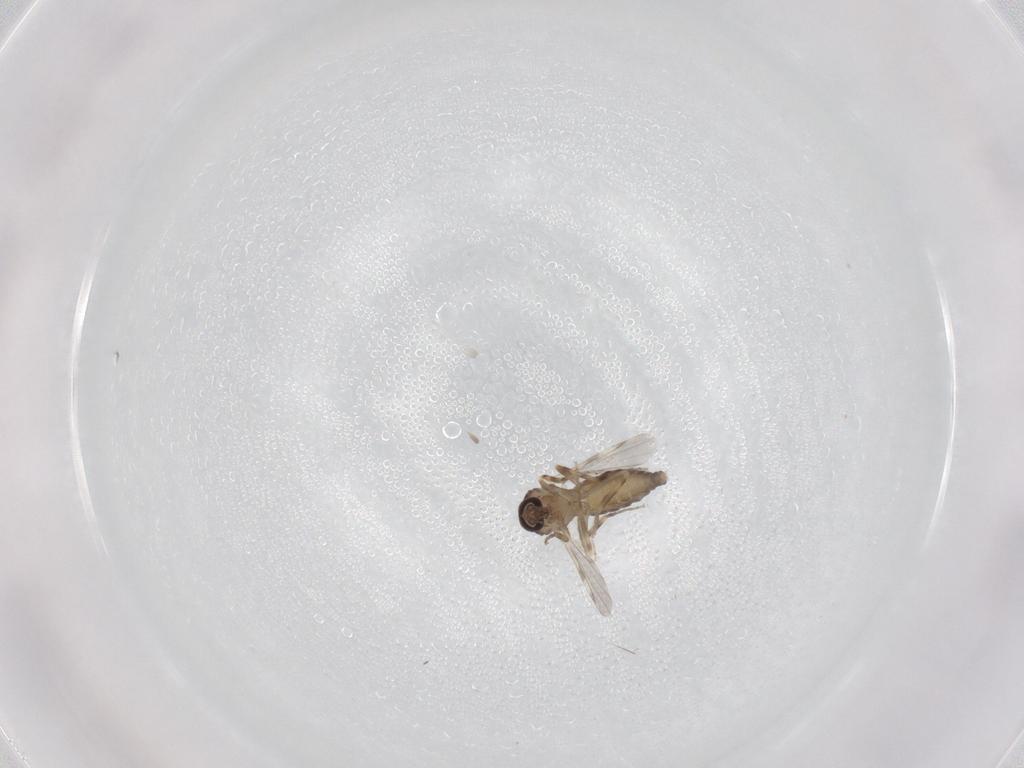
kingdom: Animalia
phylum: Arthropoda
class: Insecta
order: Diptera
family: Ceratopogonidae
